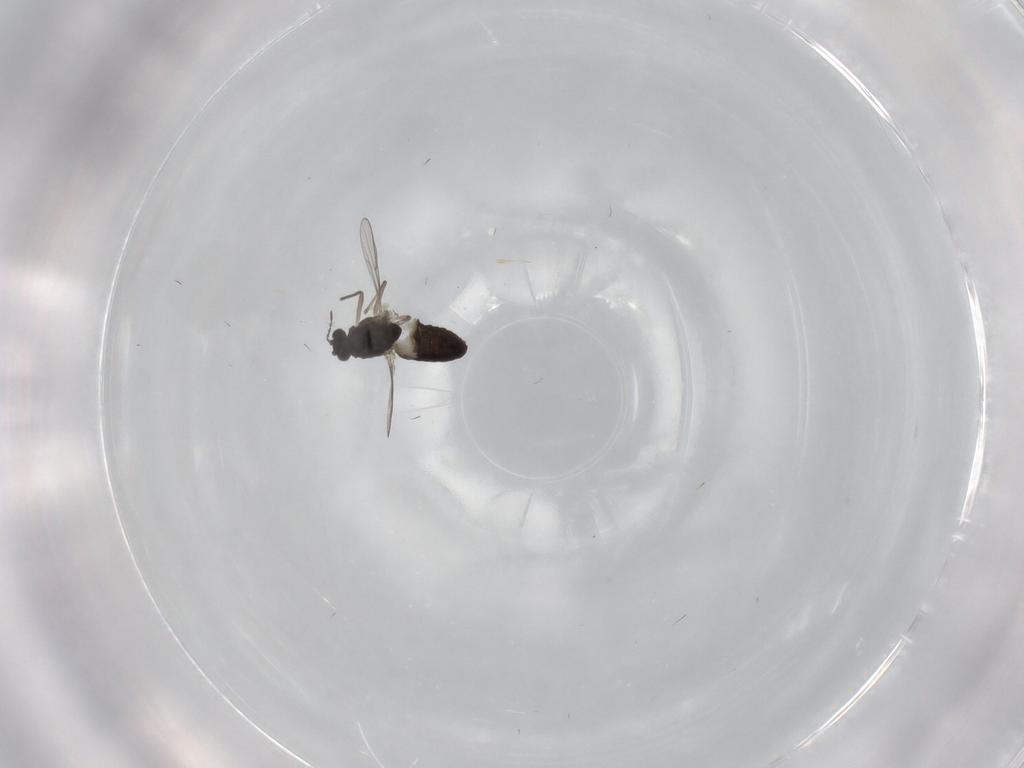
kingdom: Animalia
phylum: Arthropoda
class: Insecta
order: Diptera
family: Chironomidae
